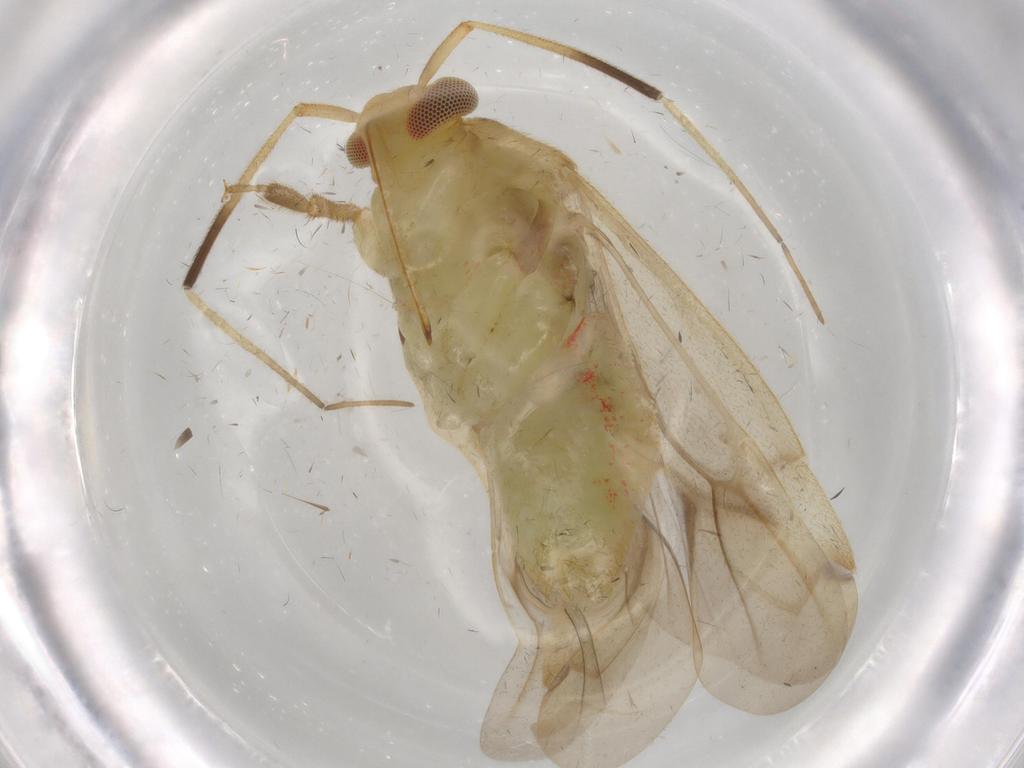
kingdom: Animalia
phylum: Arthropoda
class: Insecta
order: Hemiptera
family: Miridae
